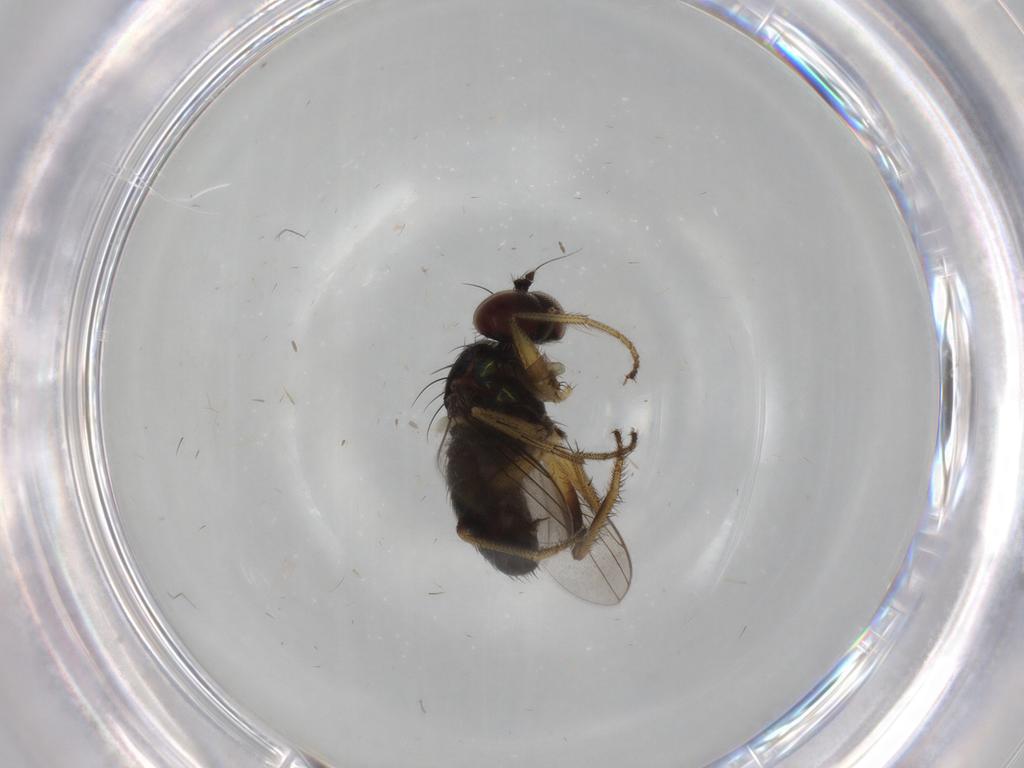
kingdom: Animalia
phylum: Arthropoda
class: Insecta
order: Diptera
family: Dolichopodidae
